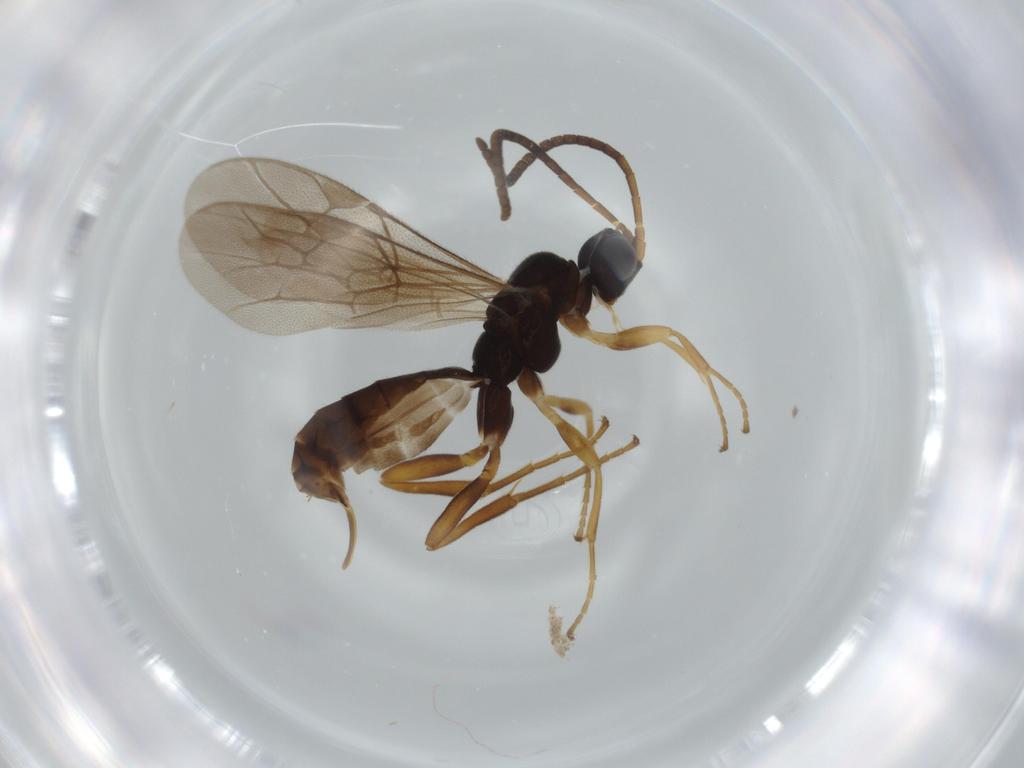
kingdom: Animalia
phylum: Arthropoda
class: Insecta
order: Hymenoptera
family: Ichneumonidae
